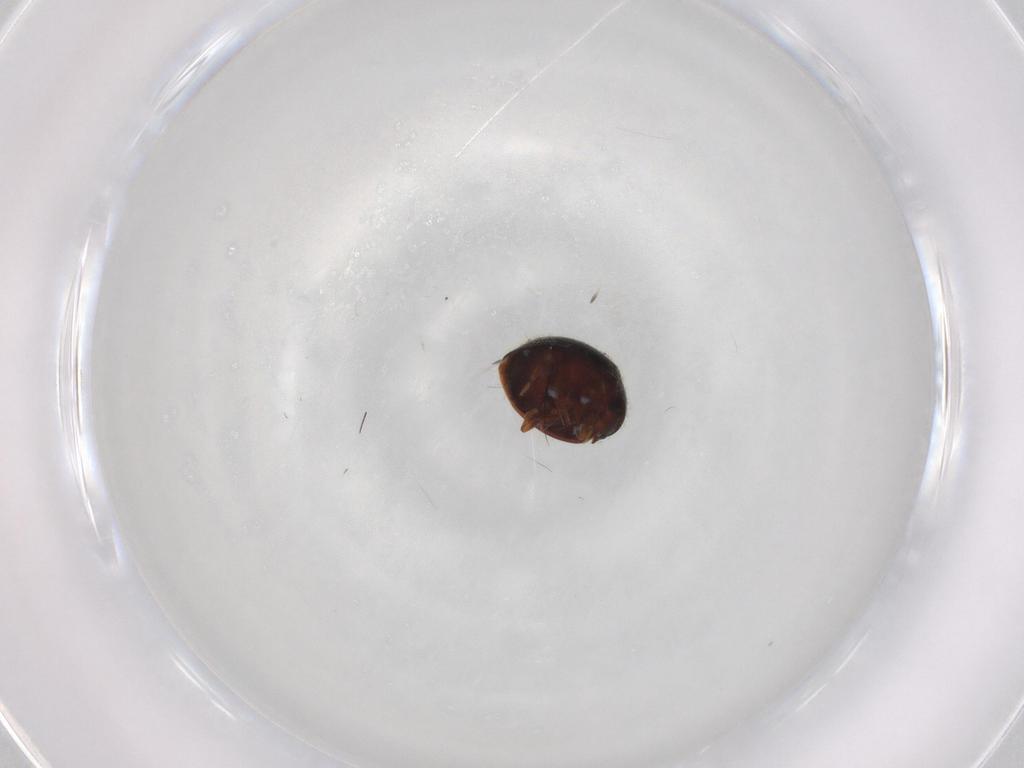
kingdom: Animalia
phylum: Arthropoda
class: Insecta
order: Coleoptera
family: Coccinellidae
